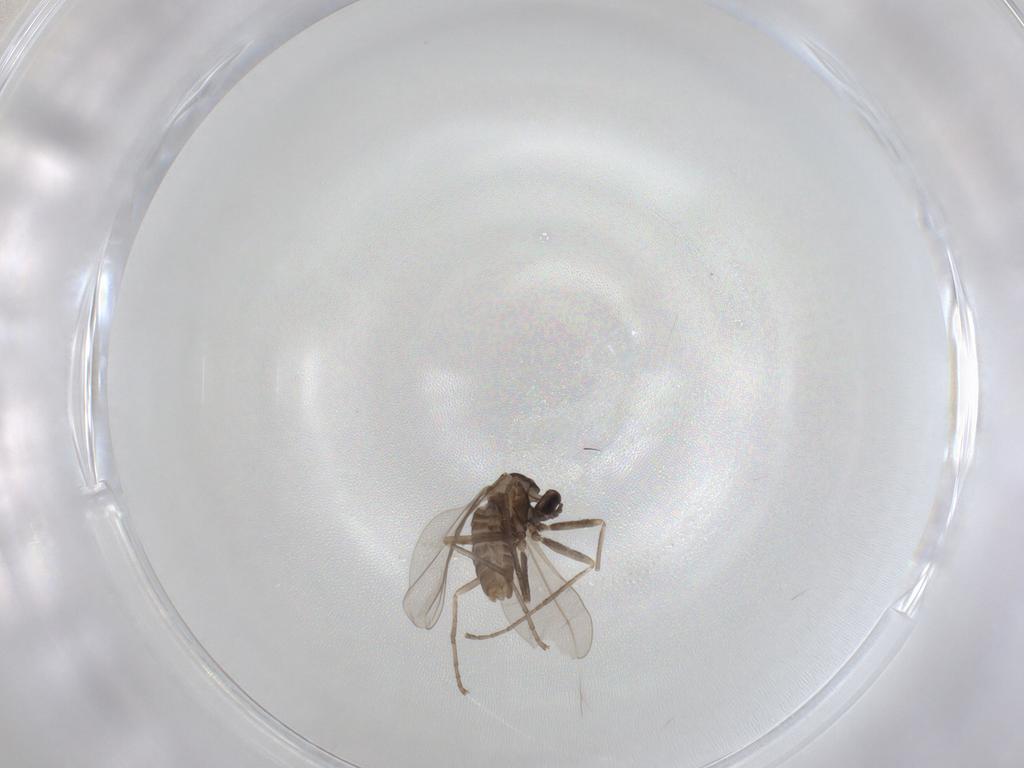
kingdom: Animalia
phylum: Arthropoda
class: Insecta
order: Diptera
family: Cecidomyiidae
